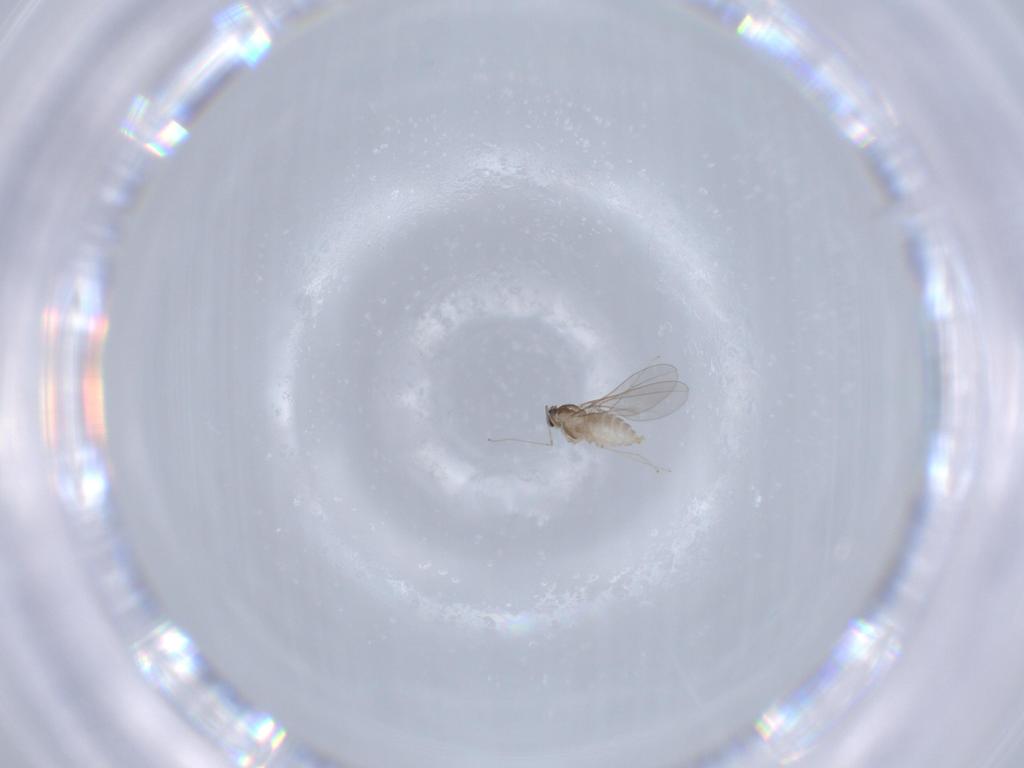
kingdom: Animalia
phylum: Arthropoda
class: Insecta
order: Diptera
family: Cecidomyiidae
